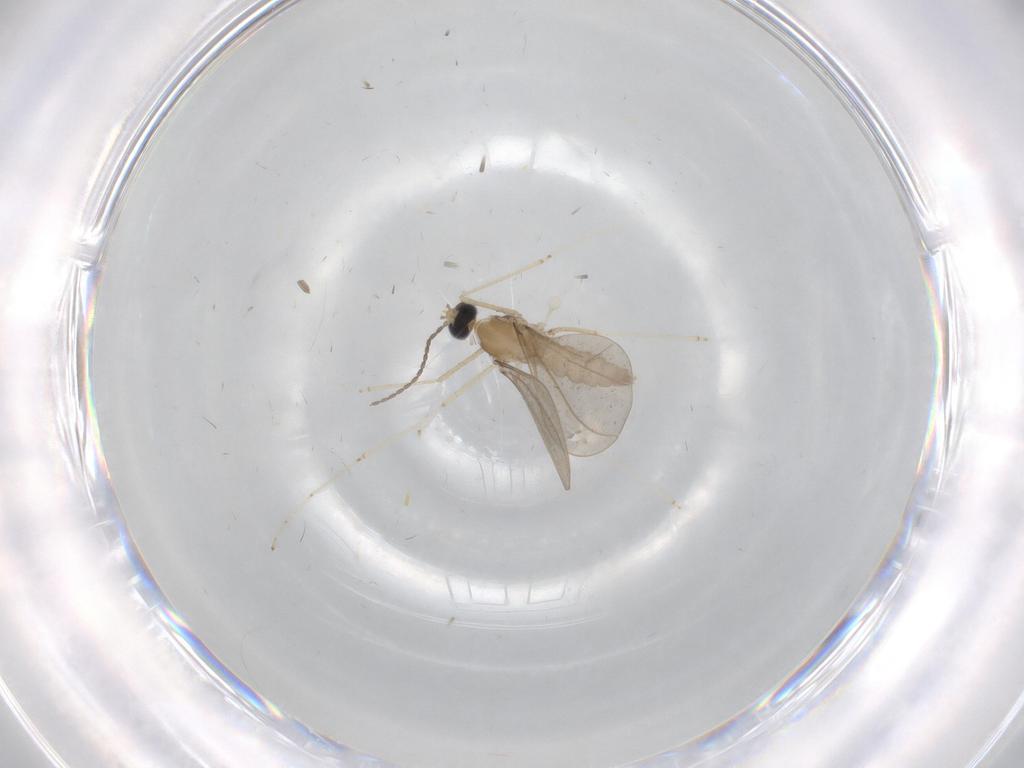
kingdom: Animalia
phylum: Arthropoda
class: Insecta
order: Diptera
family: Cecidomyiidae
